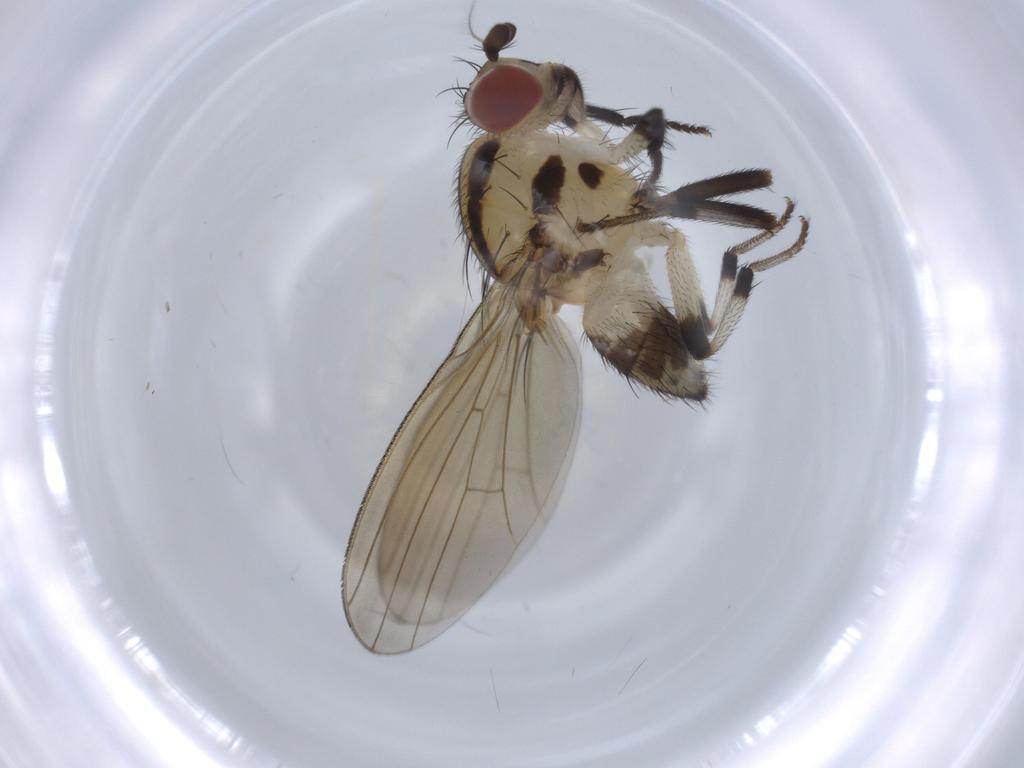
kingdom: Animalia
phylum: Arthropoda
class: Insecta
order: Diptera
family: Lauxaniidae
